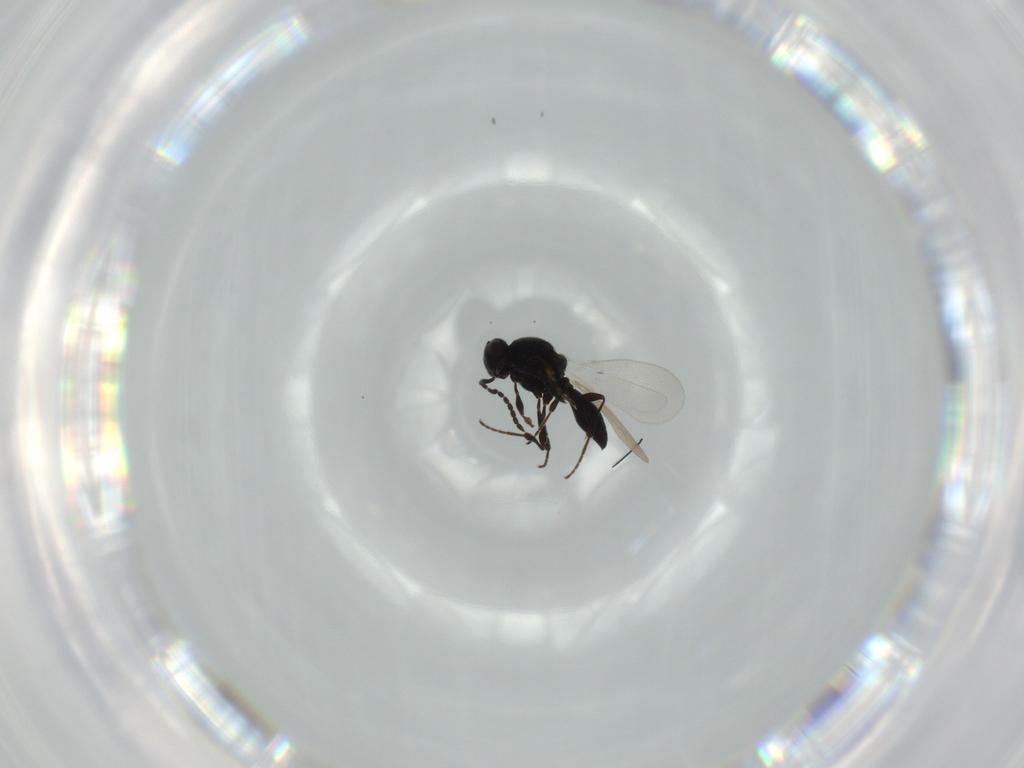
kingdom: Animalia
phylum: Arthropoda
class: Insecta
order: Hymenoptera
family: Platygastridae
